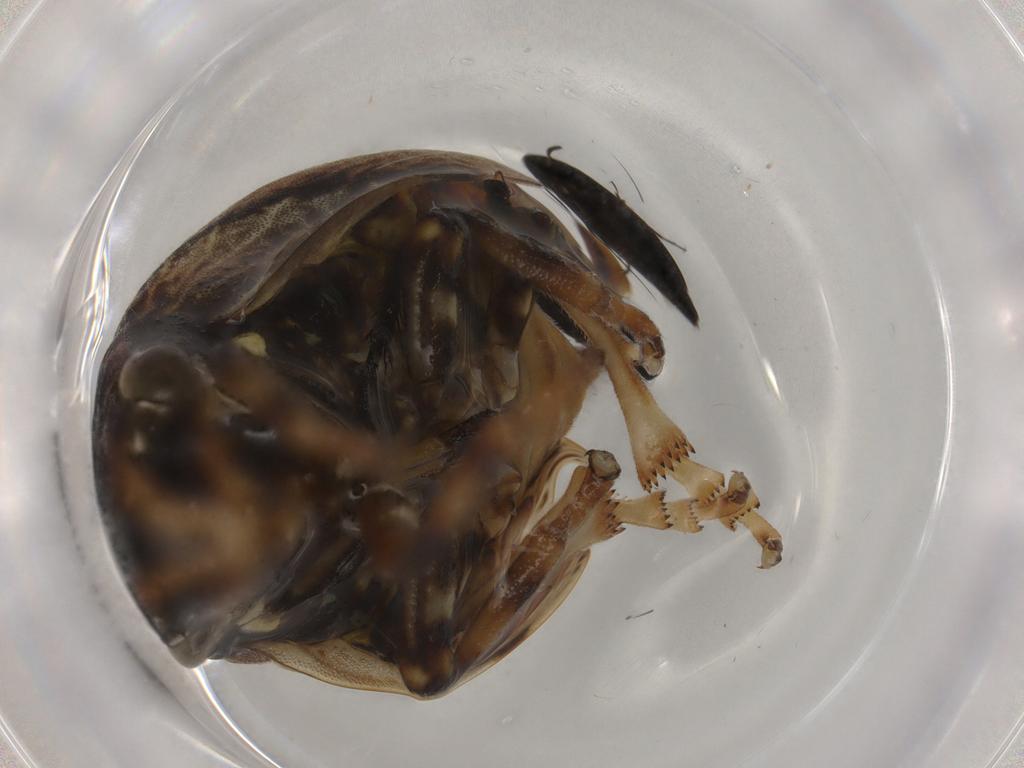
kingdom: Animalia
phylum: Arthropoda
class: Insecta
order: Hemiptera
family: Aphrophoridae
